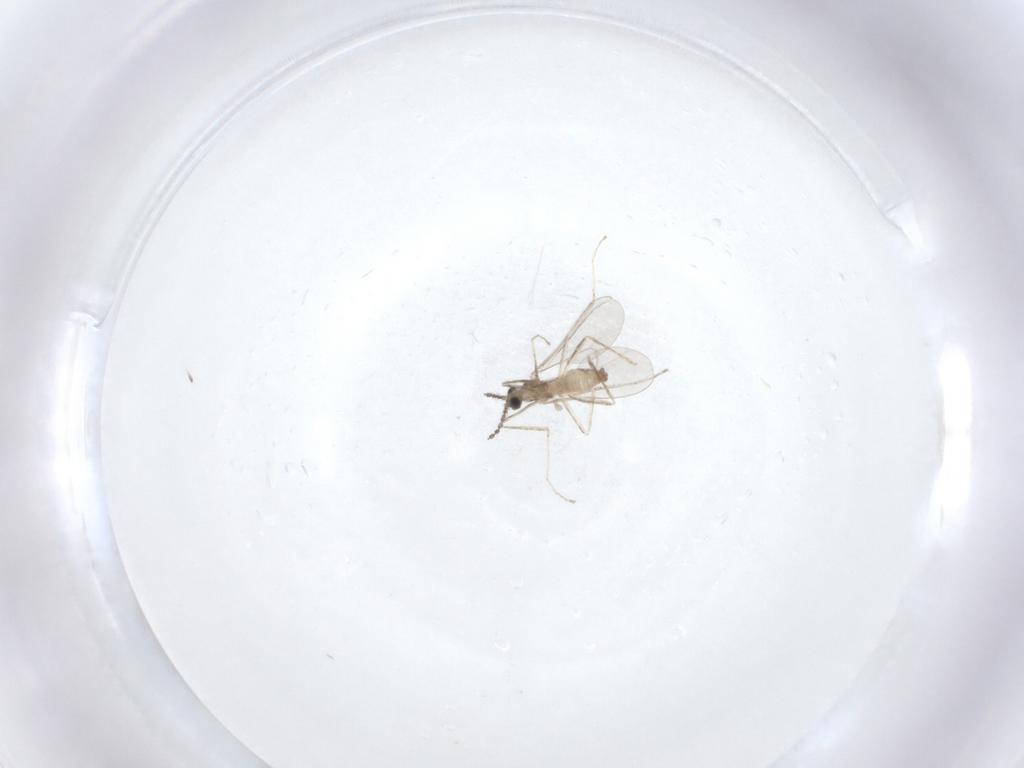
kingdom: Animalia
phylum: Arthropoda
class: Insecta
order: Diptera
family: Cecidomyiidae
